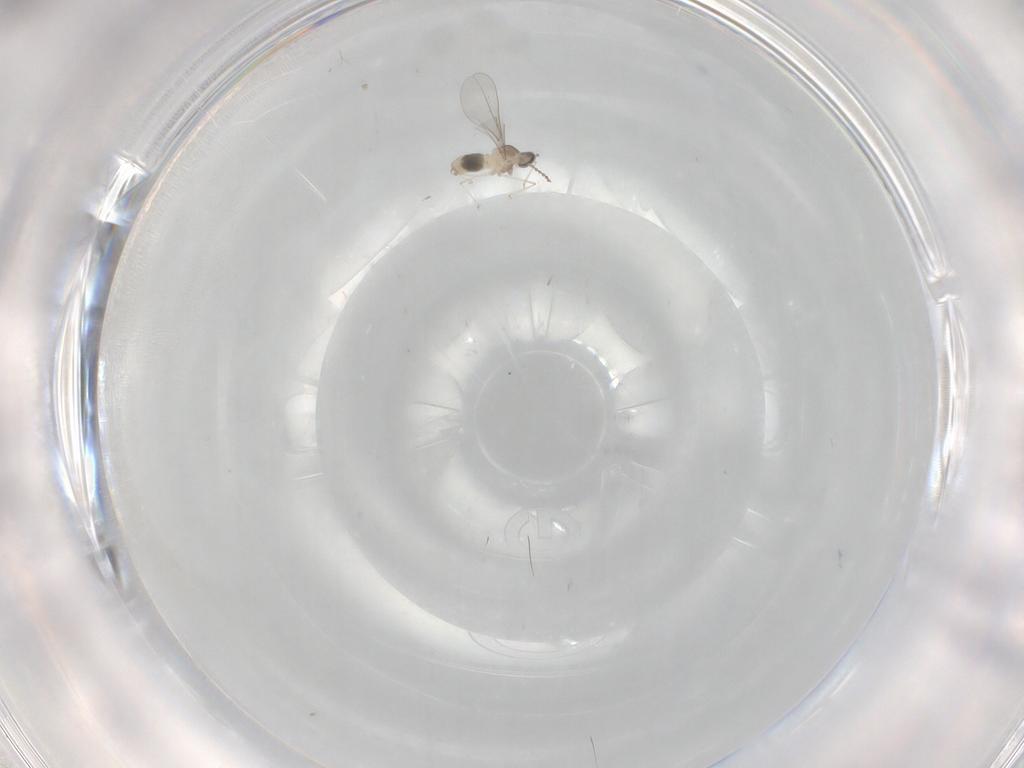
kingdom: Animalia
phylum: Arthropoda
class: Insecta
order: Diptera
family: Cecidomyiidae
